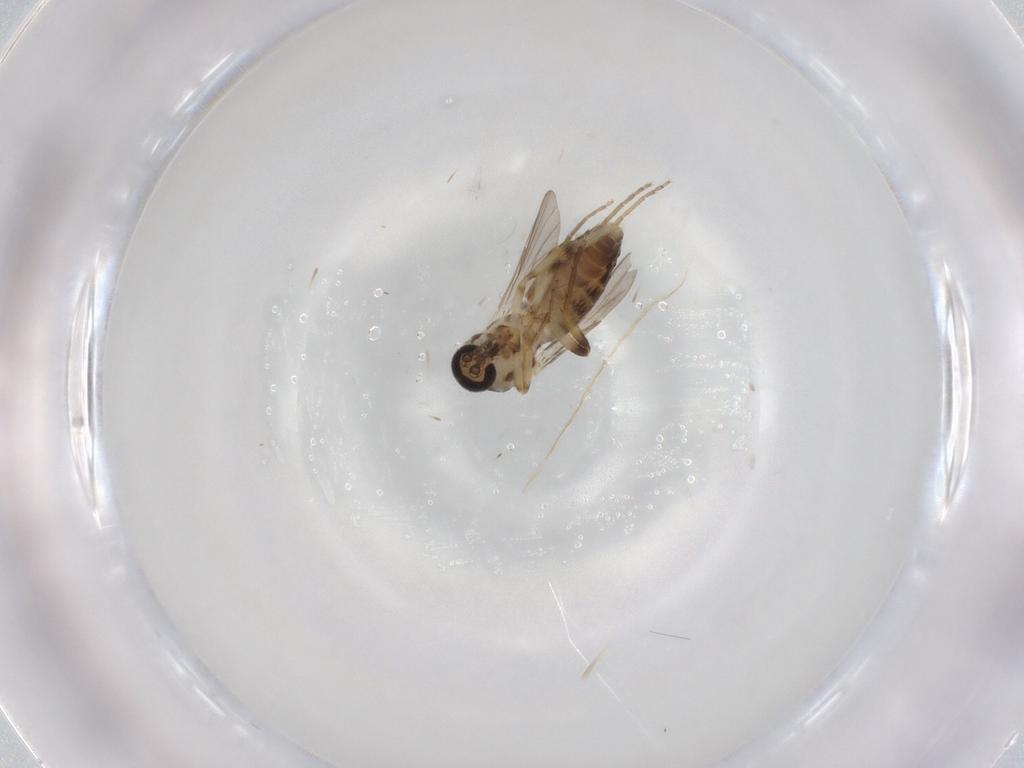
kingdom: Animalia
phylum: Arthropoda
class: Insecta
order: Diptera
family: Ceratopogonidae
